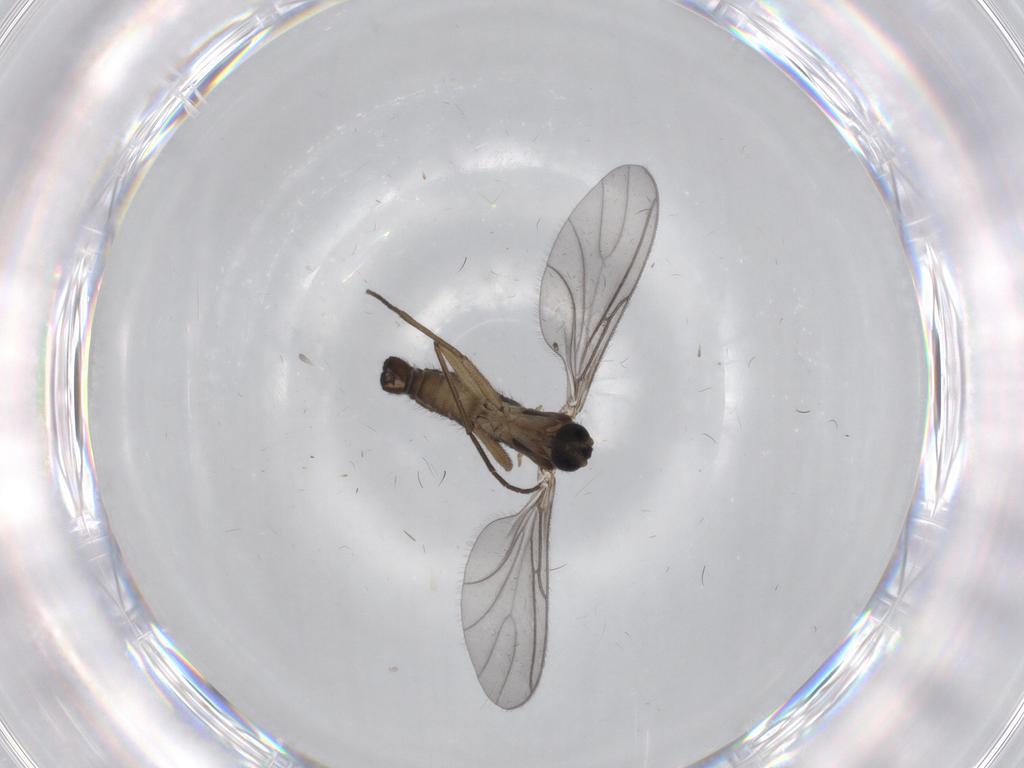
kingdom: Animalia
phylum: Arthropoda
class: Insecta
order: Diptera
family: Sciaridae
